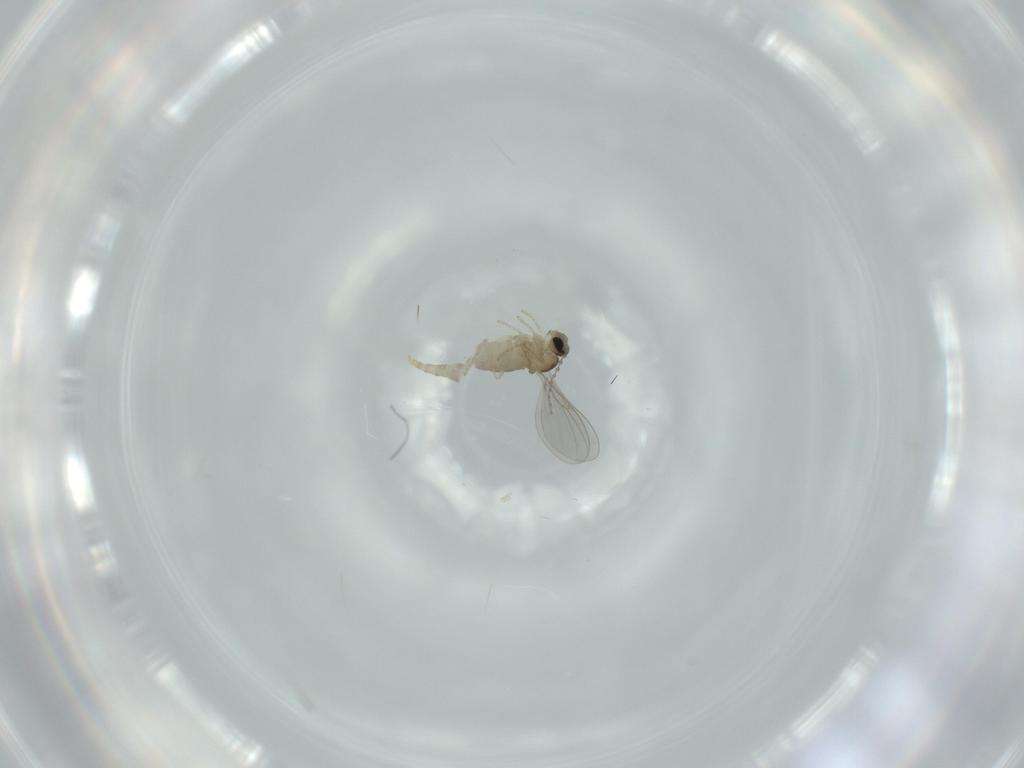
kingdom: Animalia
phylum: Arthropoda
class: Insecta
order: Diptera
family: Cecidomyiidae
